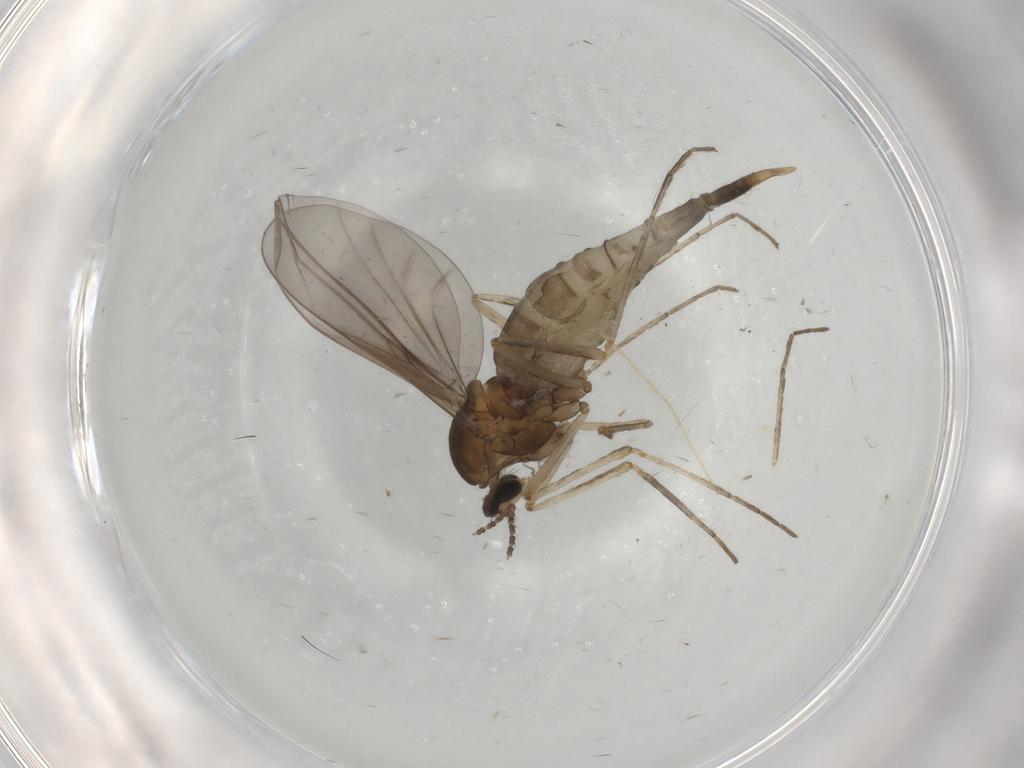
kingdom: Animalia
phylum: Arthropoda
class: Insecta
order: Diptera
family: Cecidomyiidae
